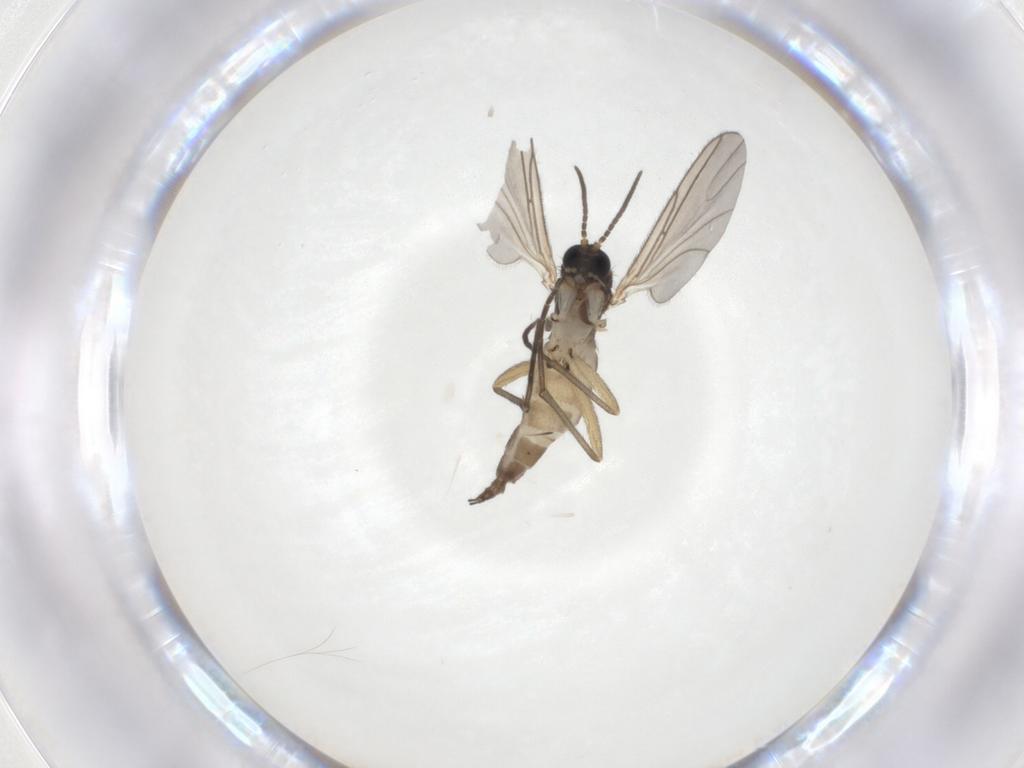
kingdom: Animalia
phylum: Arthropoda
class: Insecta
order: Diptera
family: Sciaridae
